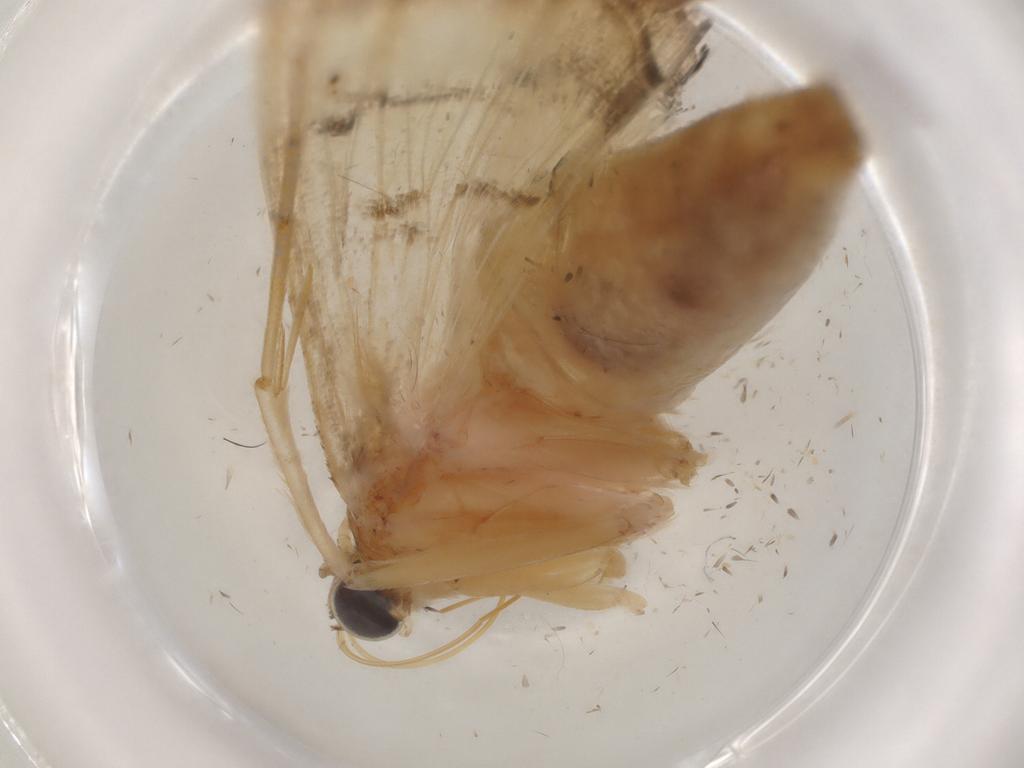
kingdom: Animalia
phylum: Arthropoda
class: Insecta
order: Lepidoptera
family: Crambidae
